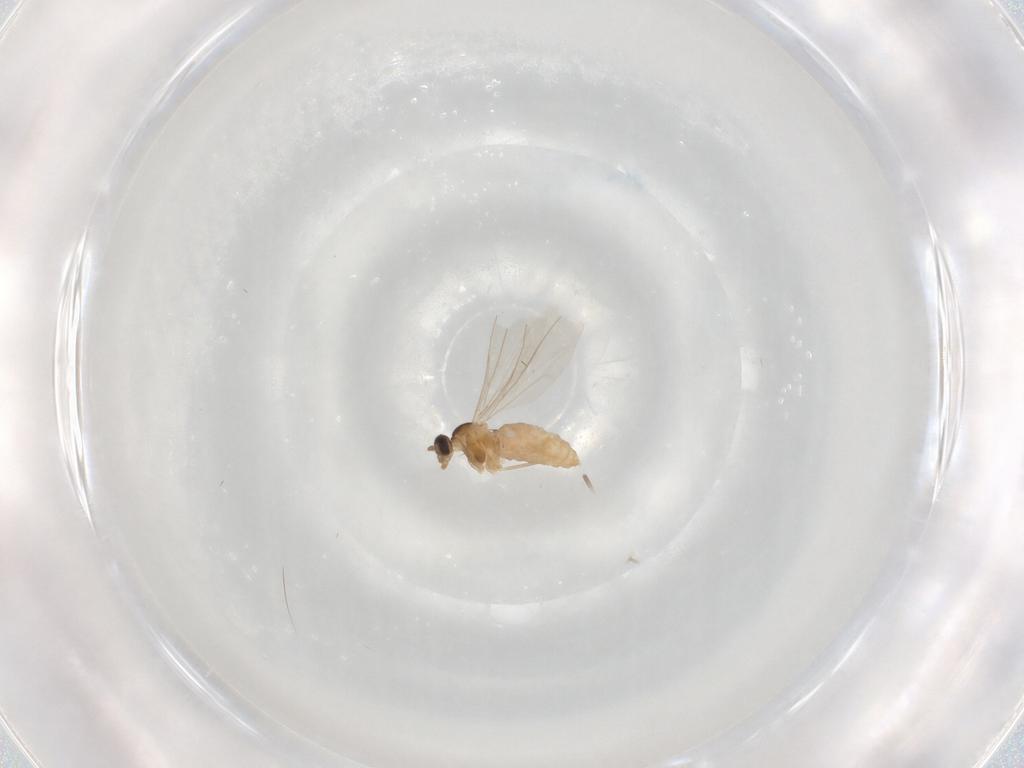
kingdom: Animalia
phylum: Arthropoda
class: Insecta
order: Diptera
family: Cecidomyiidae
